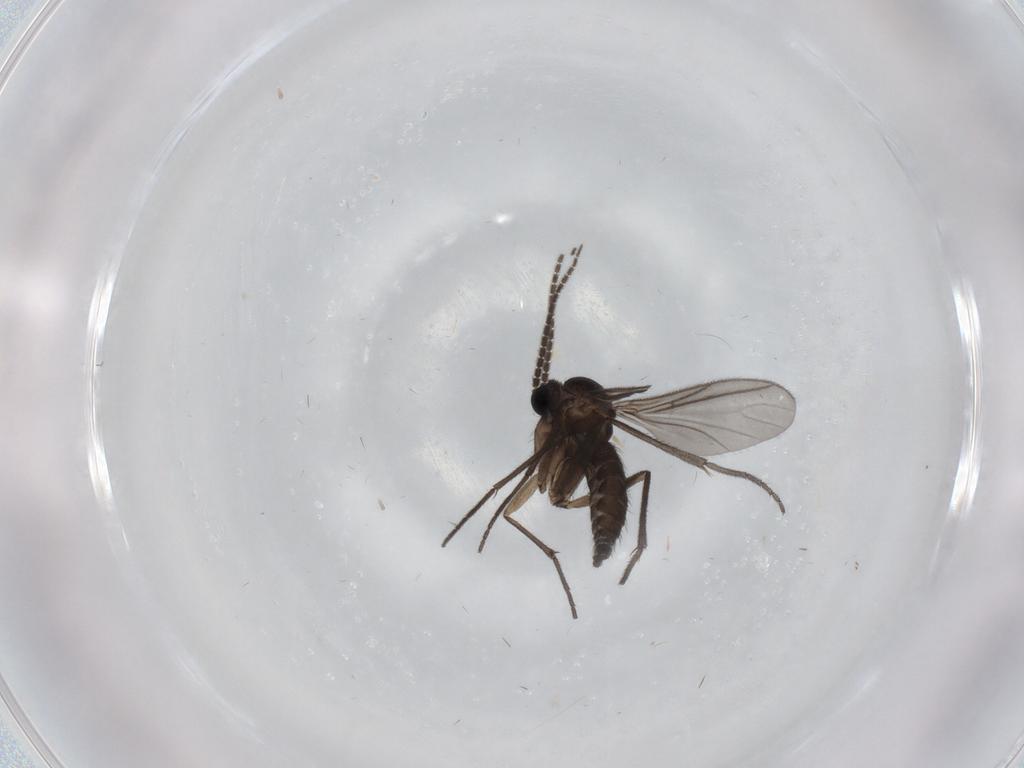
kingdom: Animalia
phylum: Arthropoda
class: Insecta
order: Diptera
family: Sciaridae
